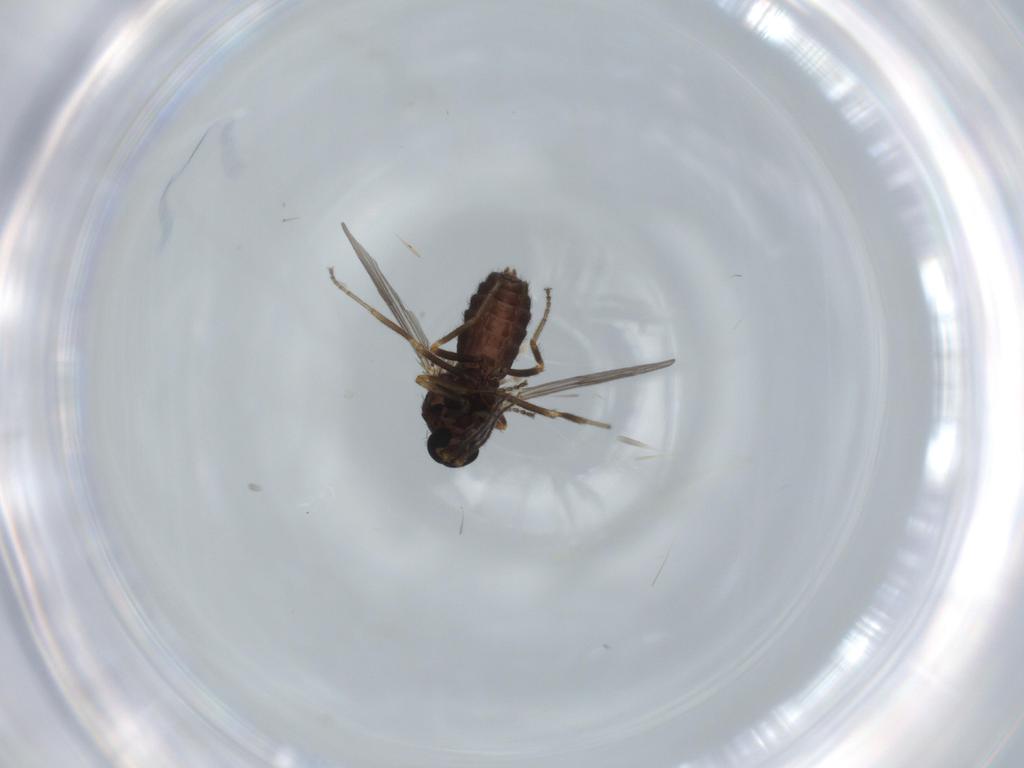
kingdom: Animalia
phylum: Arthropoda
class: Insecta
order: Diptera
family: Ceratopogonidae
